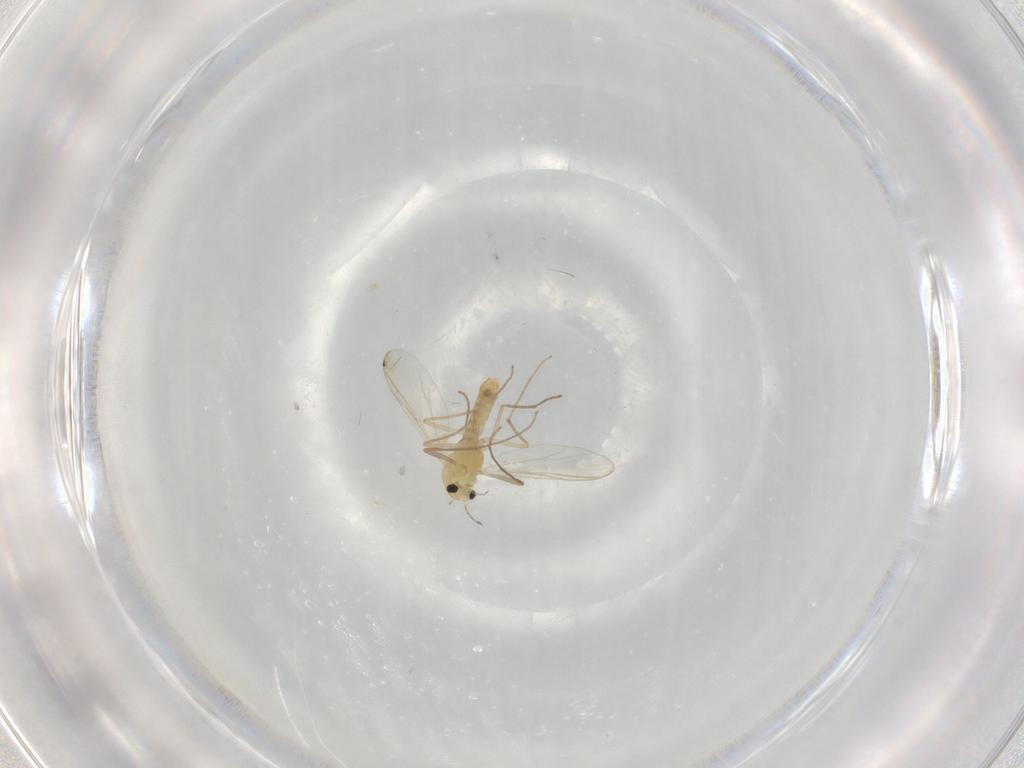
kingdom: Animalia
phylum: Arthropoda
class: Insecta
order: Diptera
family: Chironomidae
